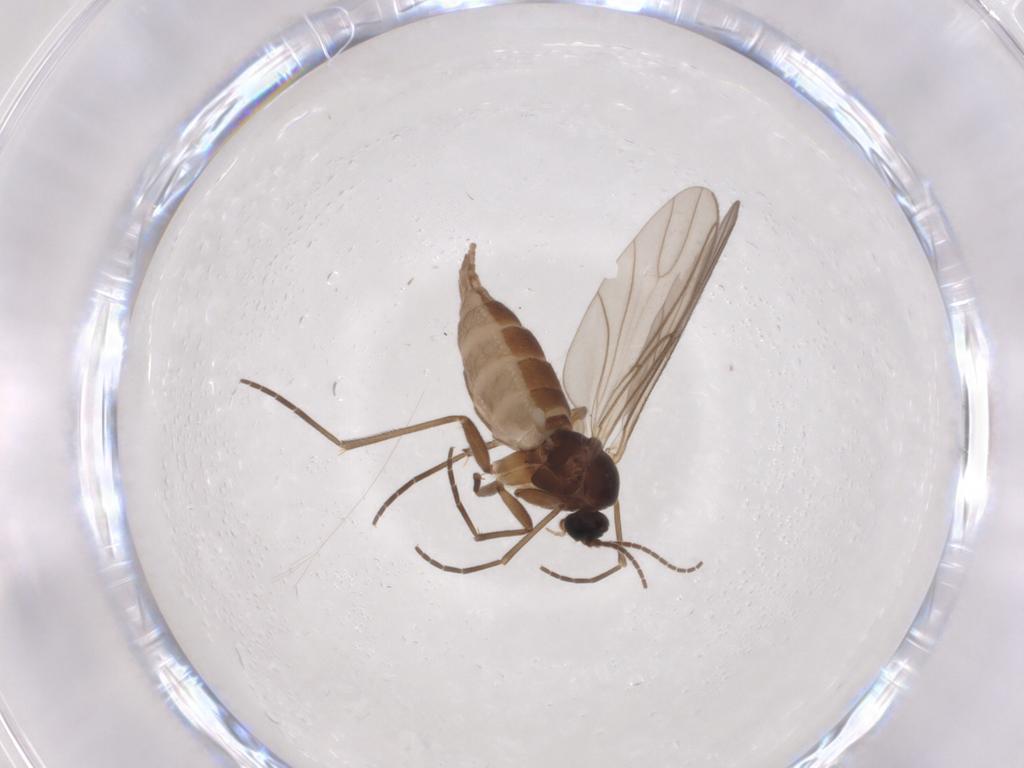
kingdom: Animalia
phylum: Arthropoda
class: Insecta
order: Diptera
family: Sciaridae
